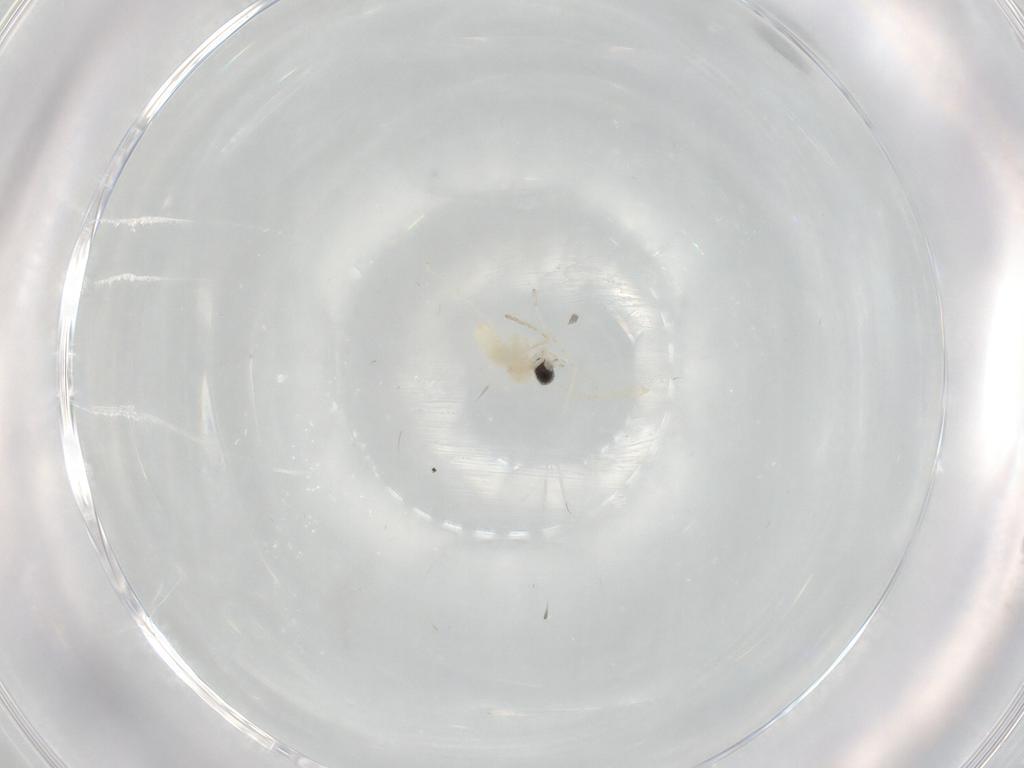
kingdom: Animalia
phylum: Arthropoda
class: Insecta
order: Diptera
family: Cecidomyiidae
